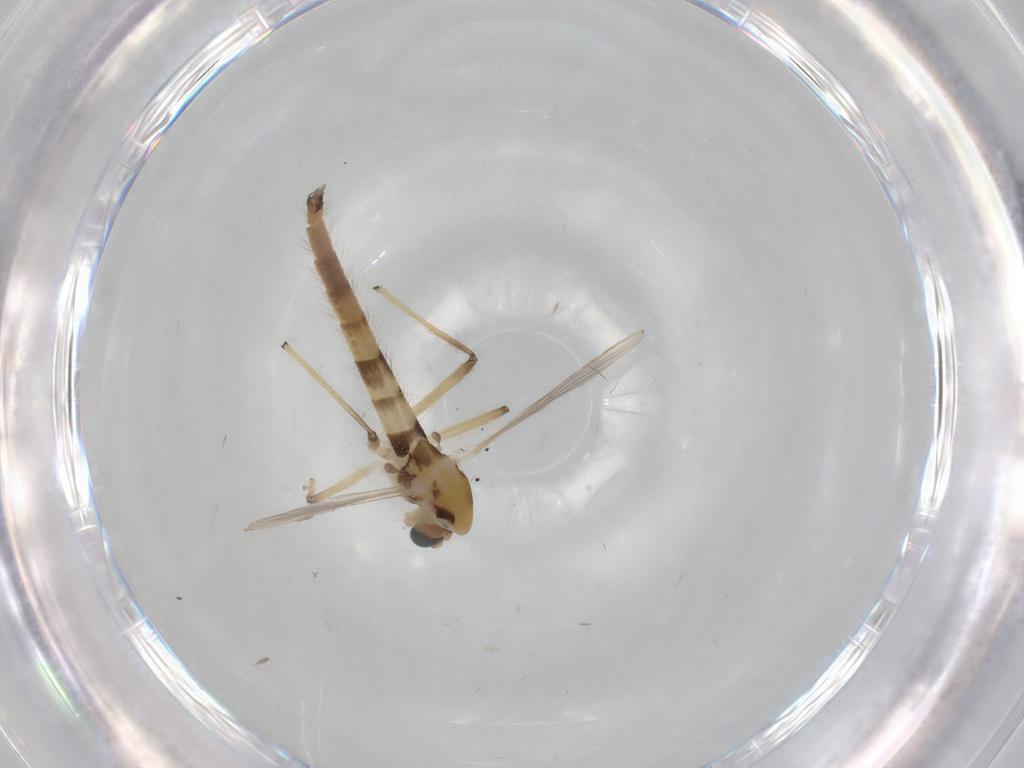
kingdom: Animalia
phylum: Arthropoda
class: Insecta
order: Diptera
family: Chironomidae
